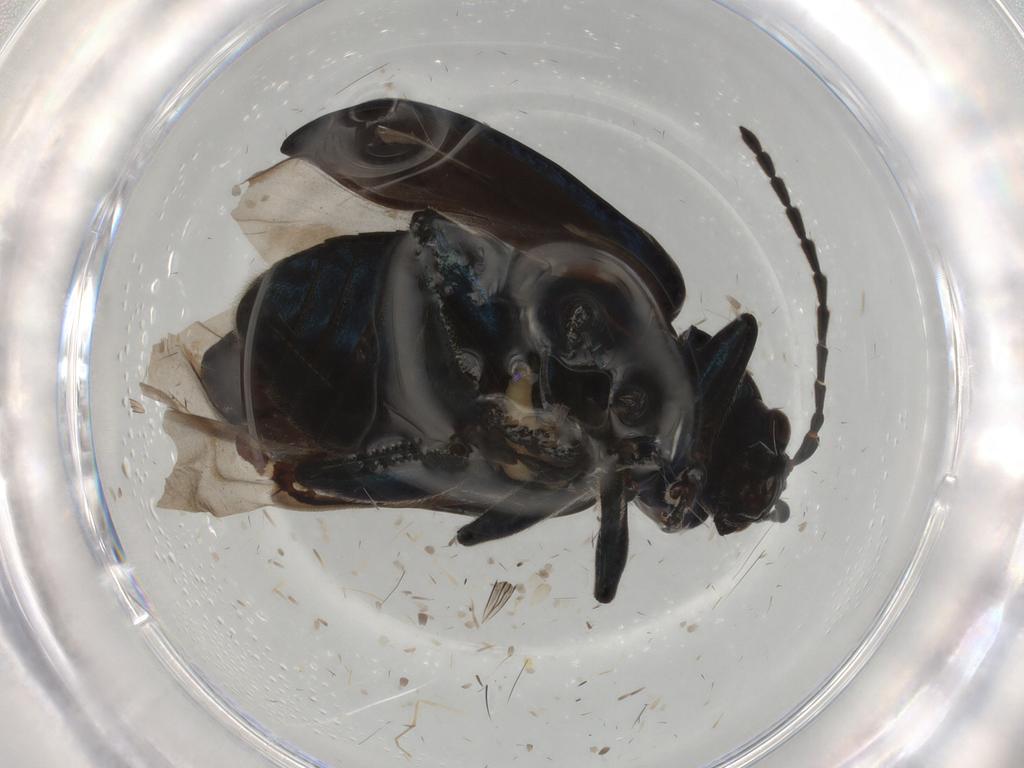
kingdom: Animalia
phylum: Arthropoda
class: Insecta
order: Coleoptera
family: Chrysomelidae
